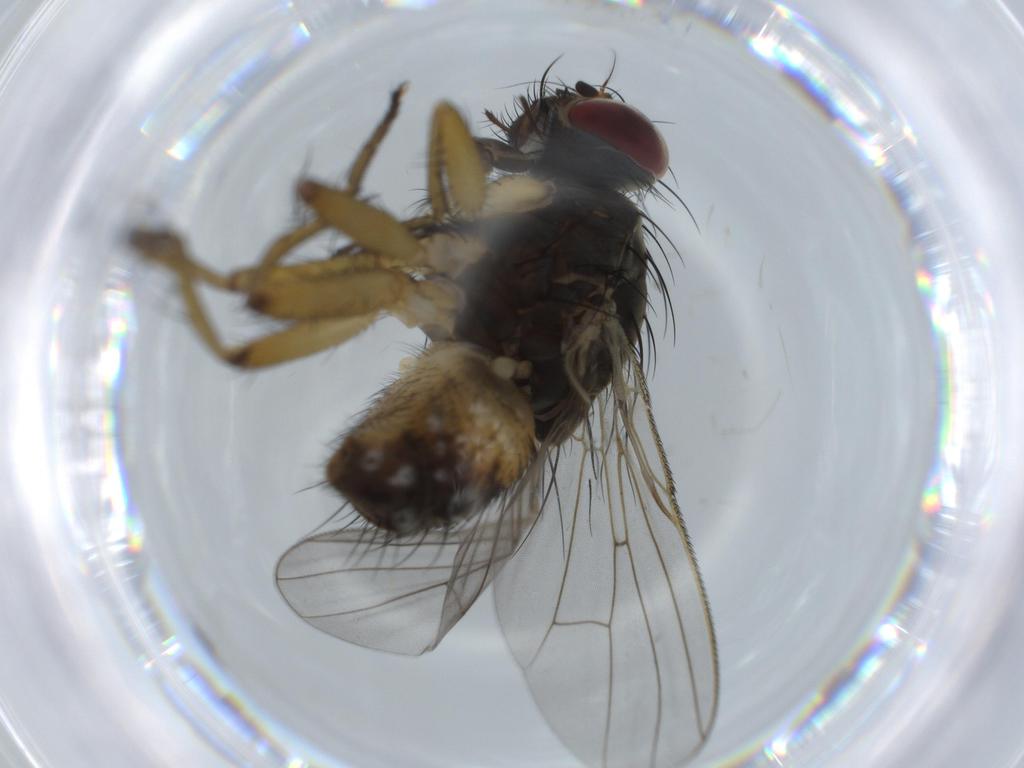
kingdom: Animalia
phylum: Arthropoda
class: Insecta
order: Diptera
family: Muscidae
